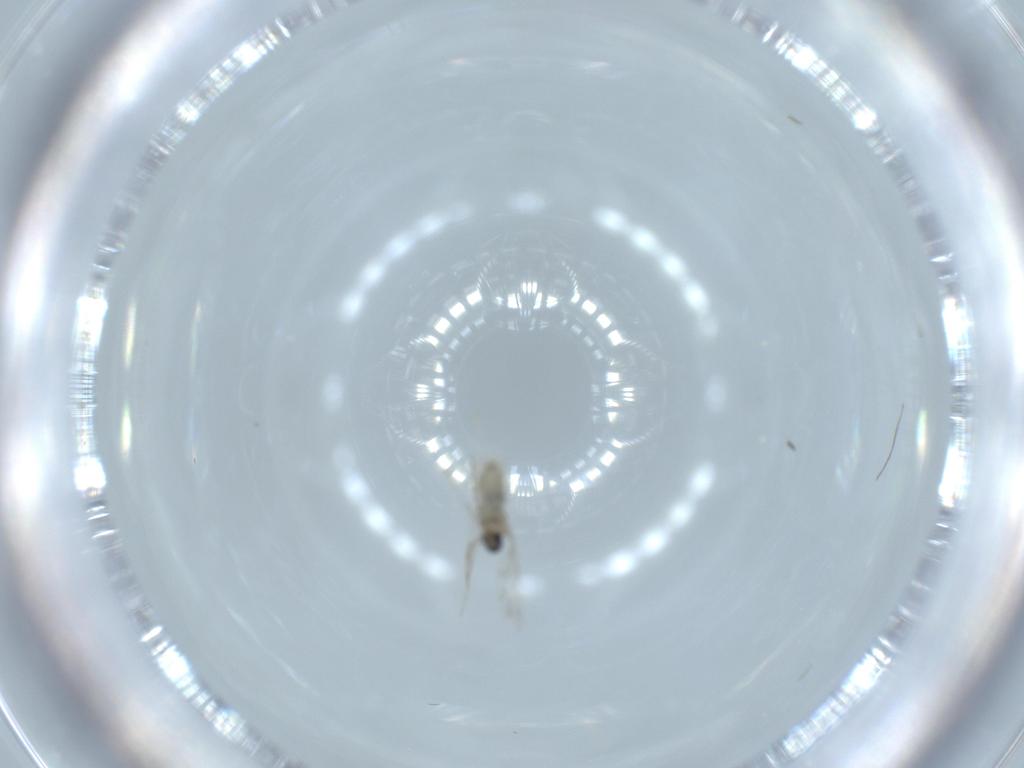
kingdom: Animalia
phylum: Arthropoda
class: Insecta
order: Diptera
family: Cecidomyiidae
